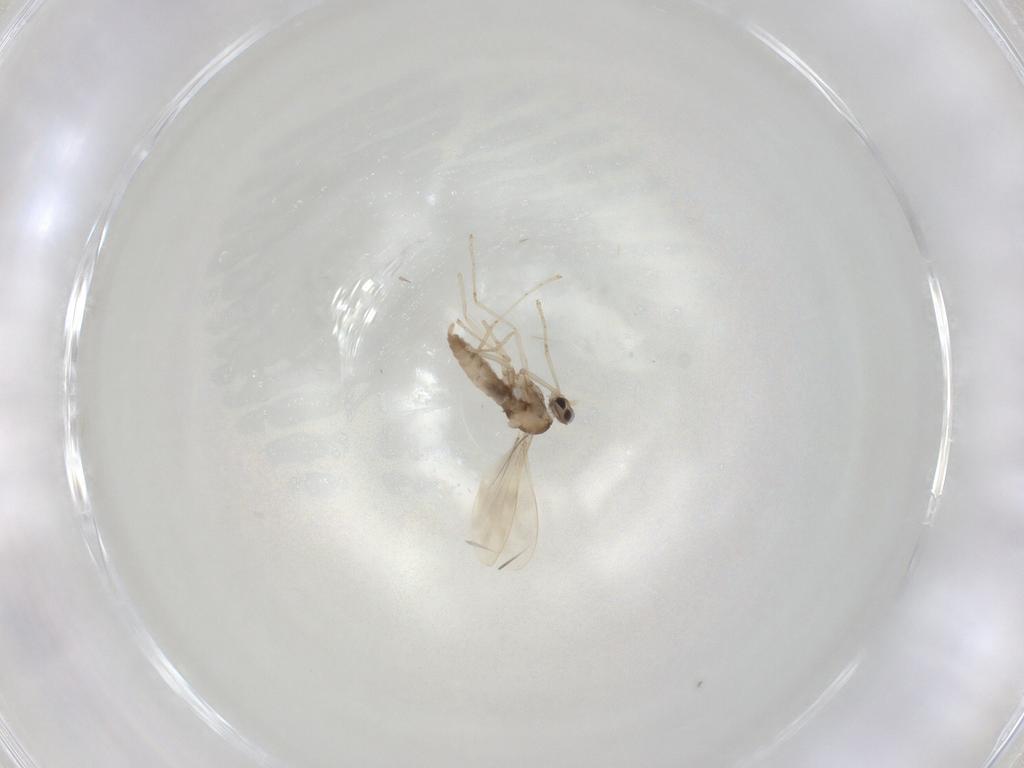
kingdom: Animalia
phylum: Arthropoda
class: Insecta
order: Diptera
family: Cecidomyiidae
